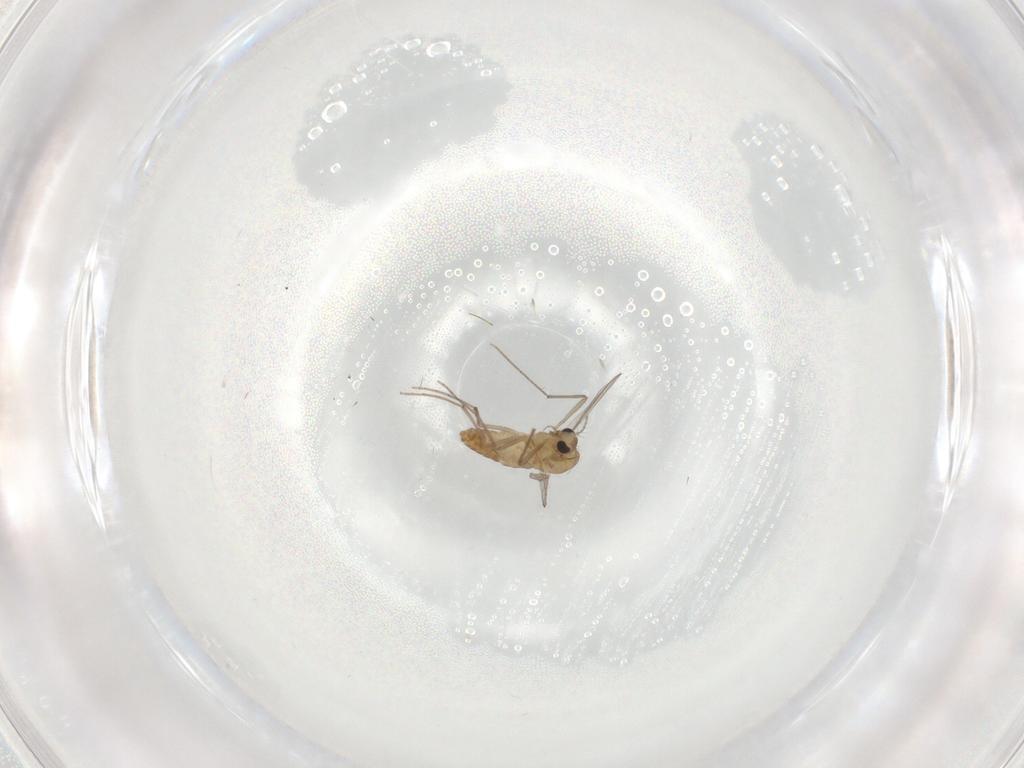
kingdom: Animalia
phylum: Arthropoda
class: Insecta
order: Diptera
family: Chironomidae
